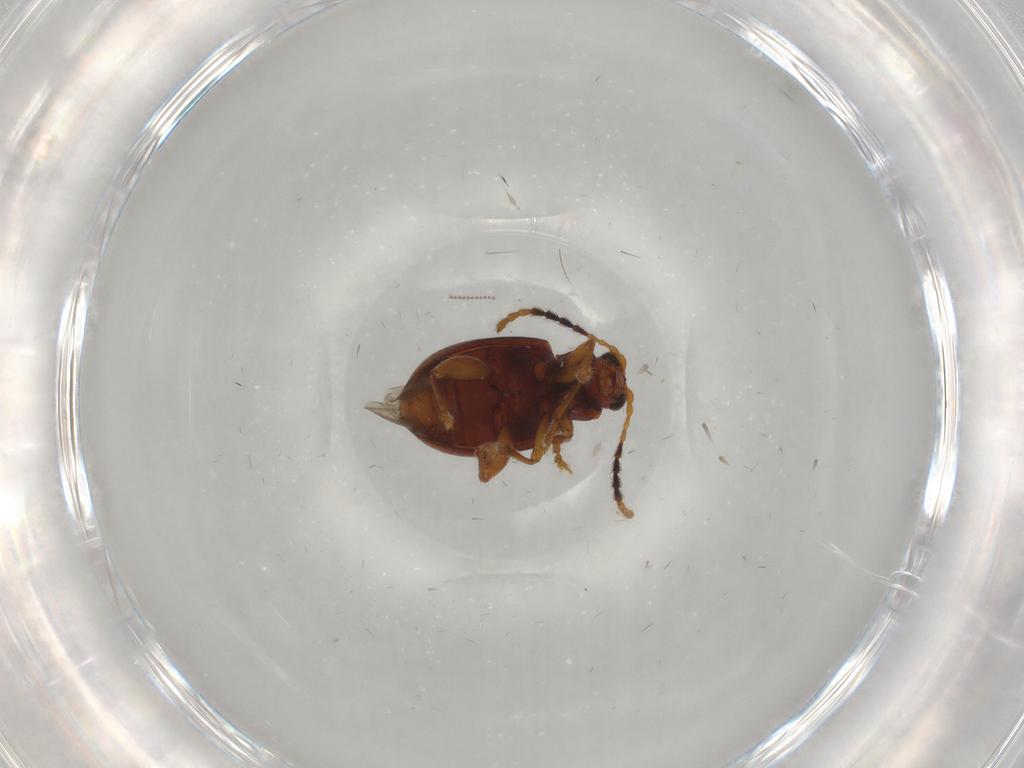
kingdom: Animalia
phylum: Arthropoda
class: Insecta
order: Coleoptera
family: Chrysomelidae
